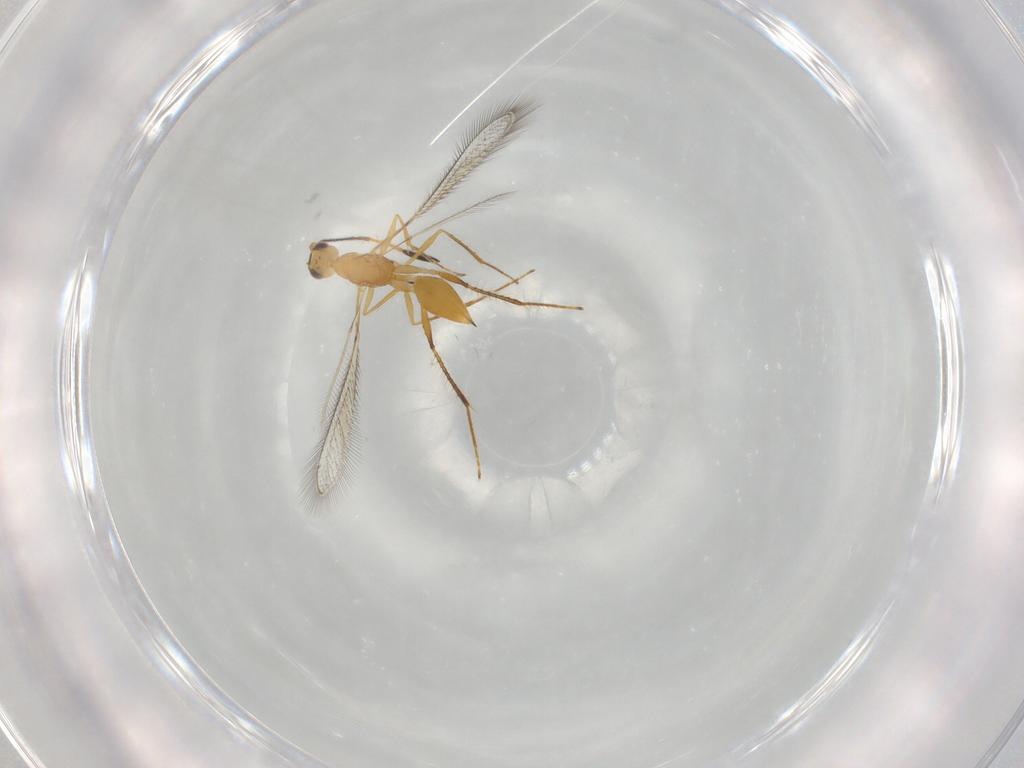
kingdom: Animalia
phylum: Arthropoda
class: Insecta
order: Hymenoptera
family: Mymaridae
